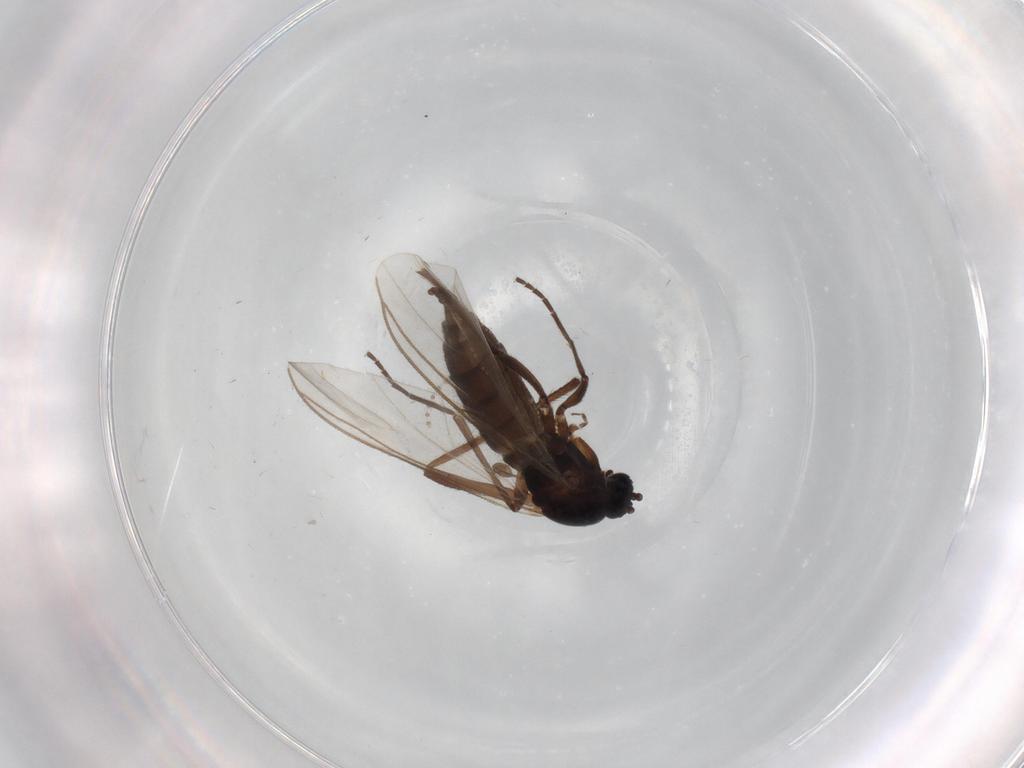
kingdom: Animalia
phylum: Arthropoda
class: Insecta
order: Diptera
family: Sciaridae
